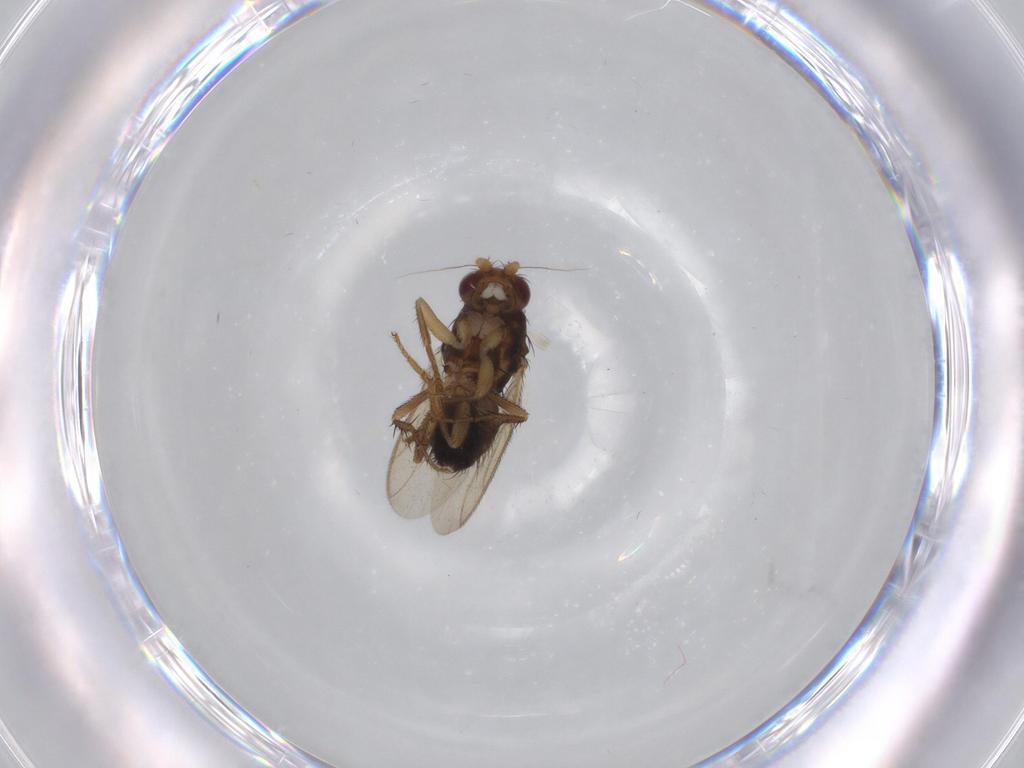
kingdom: Animalia
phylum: Arthropoda
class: Insecta
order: Diptera
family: Sphaeroceridae
